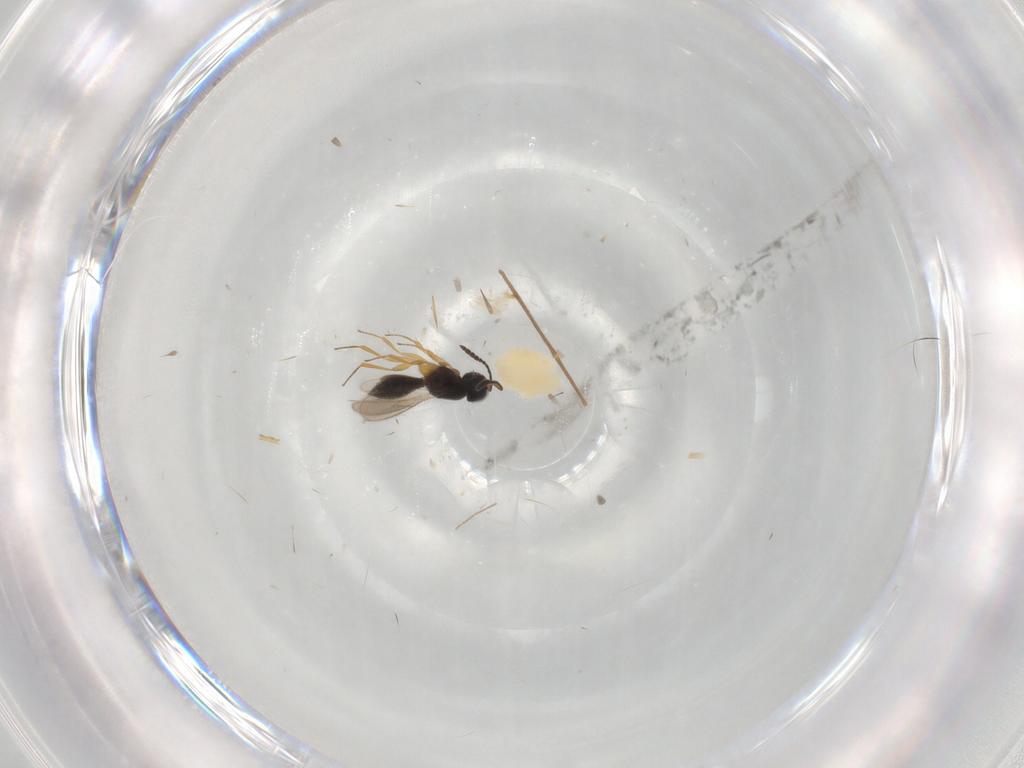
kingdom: Animalia
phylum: Arthropoda
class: Insecta
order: Hymenoptera
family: Scelionidae
